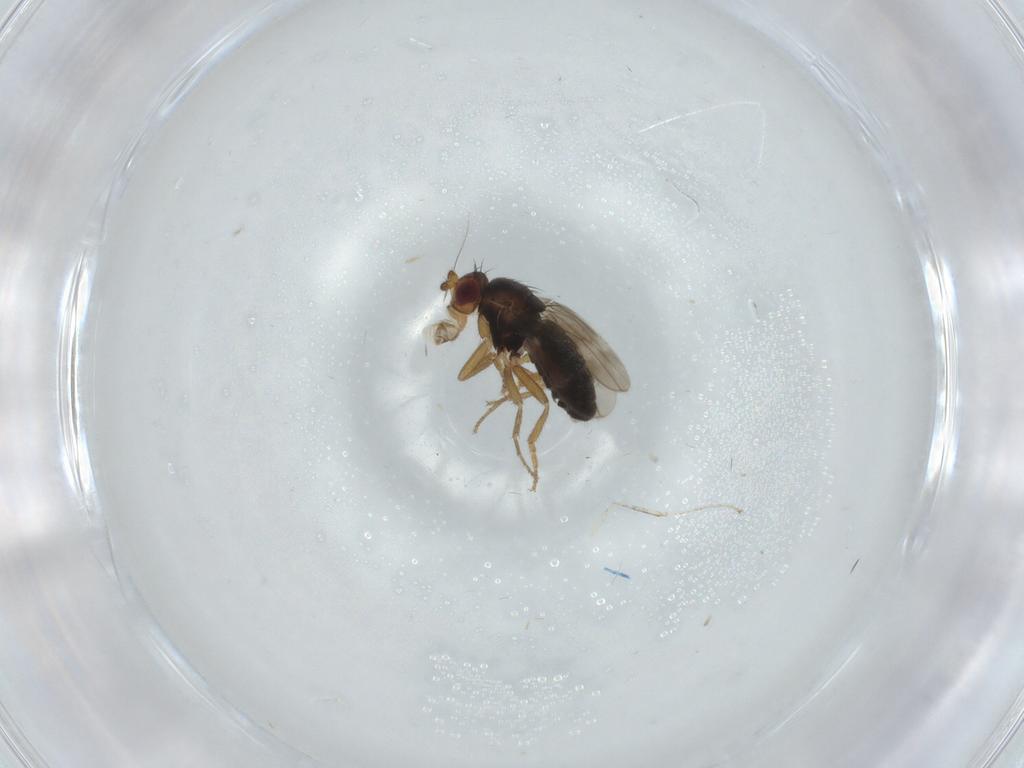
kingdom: Animalia
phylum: Arthropoda
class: Insecta
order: Diptera
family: Sphaeroceridae
